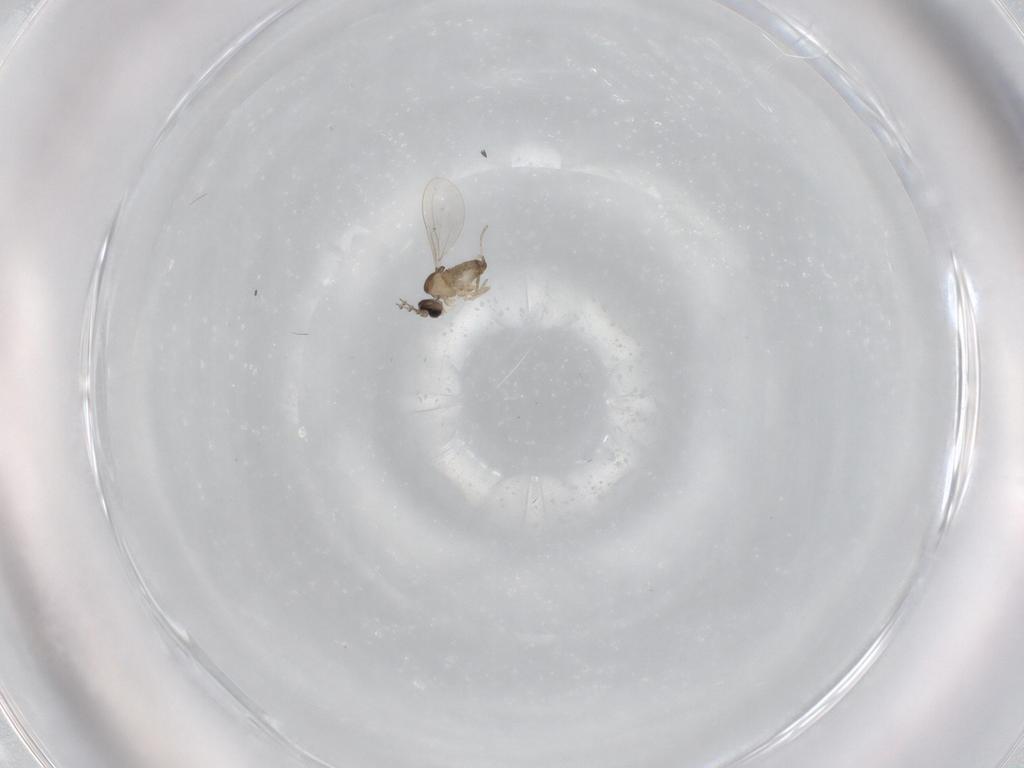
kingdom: Animalia
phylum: Arthropoda
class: Insecta
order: Diptera
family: Cecidomyiidae
